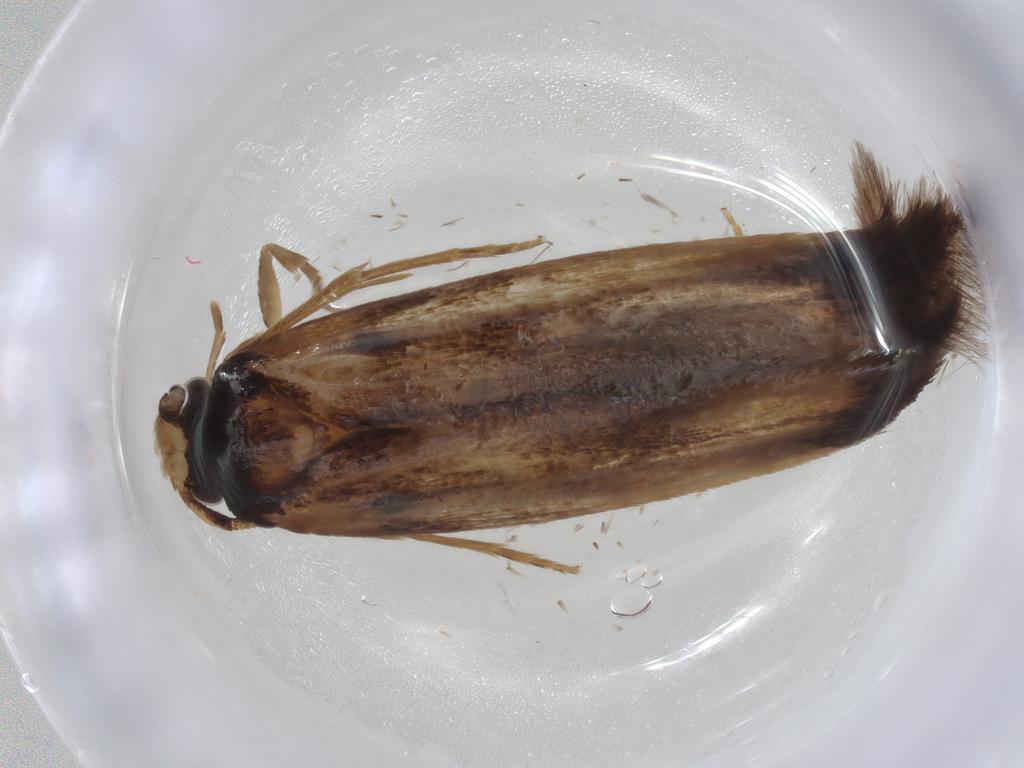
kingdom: Animalia
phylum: Arthropoda
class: Insecta
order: Lepidoptera
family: Tineidae
